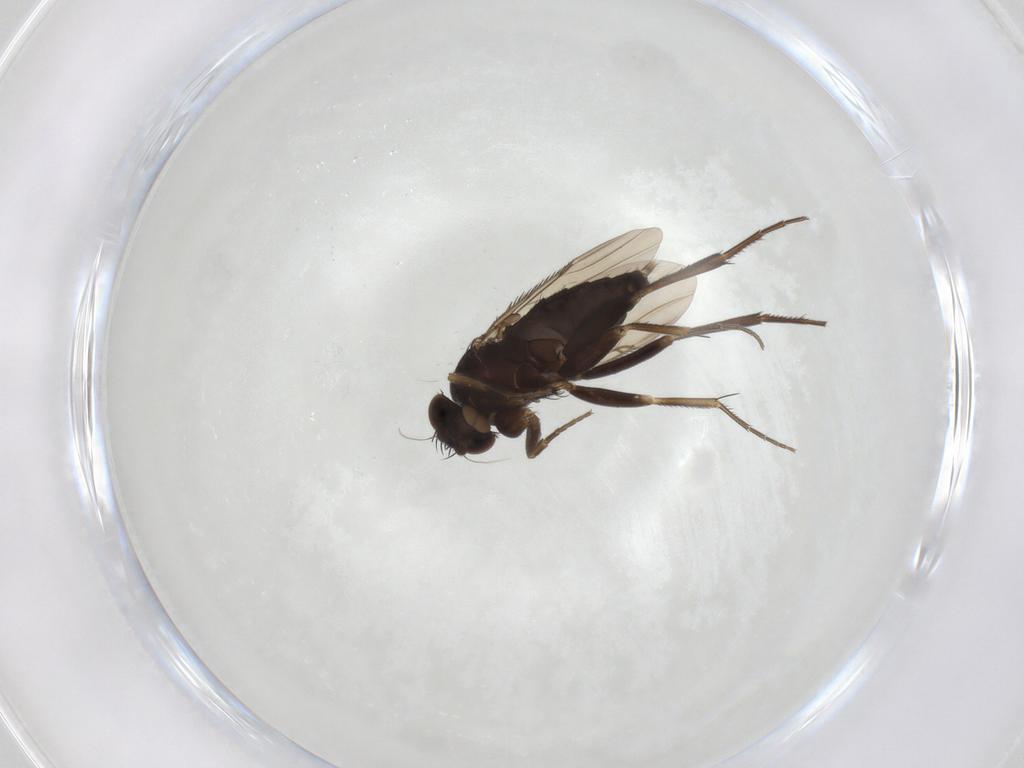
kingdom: Animalia
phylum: Arthropoda
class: Insecta
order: Diptera
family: Phoridae
